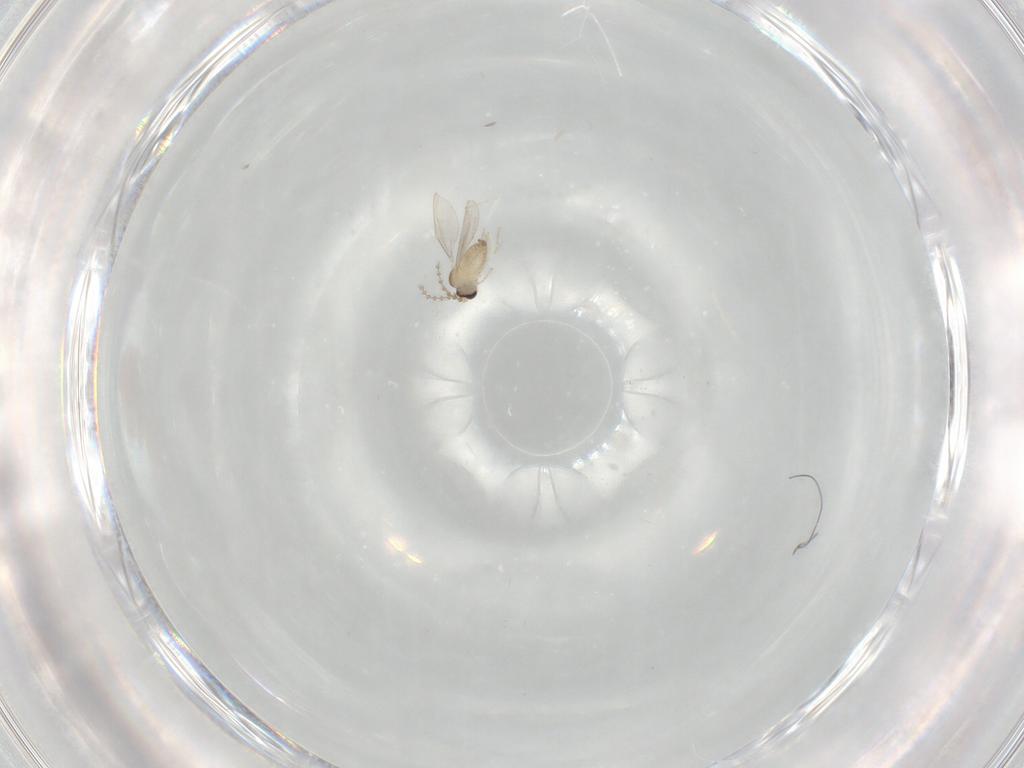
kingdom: Animalia
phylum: Arthropoda
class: Insecta
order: Diptera
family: Cecidomyiidae
